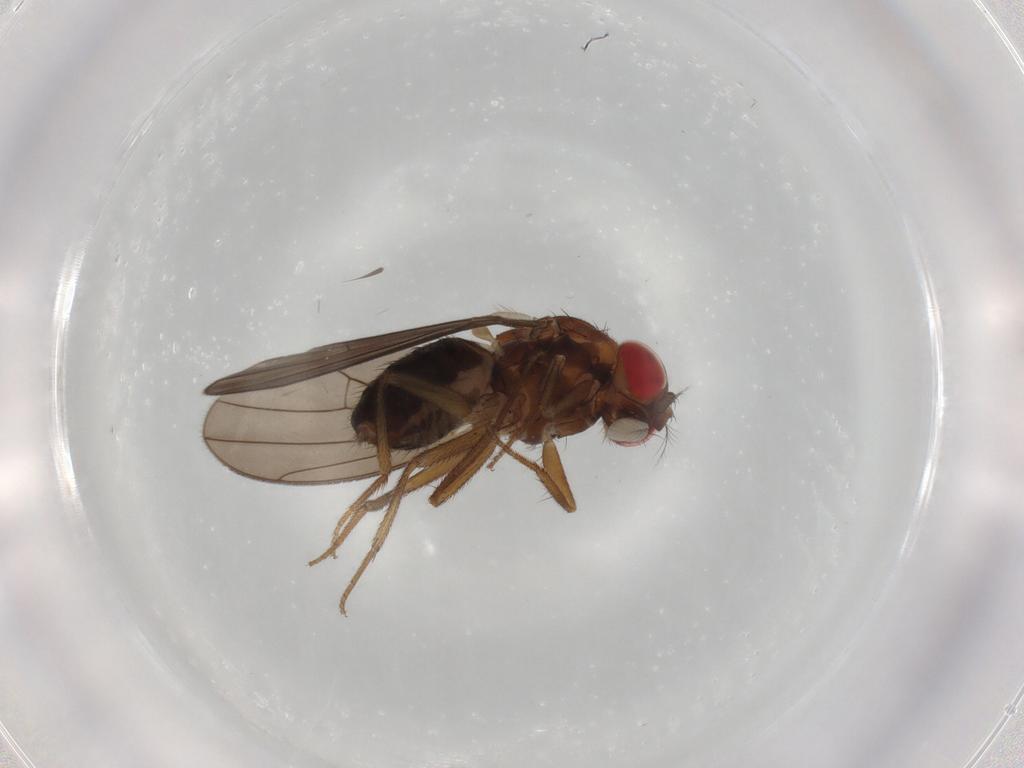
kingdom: Animalia
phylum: Arthropoda
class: Insecta
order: Diptera
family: Drosophilidae
